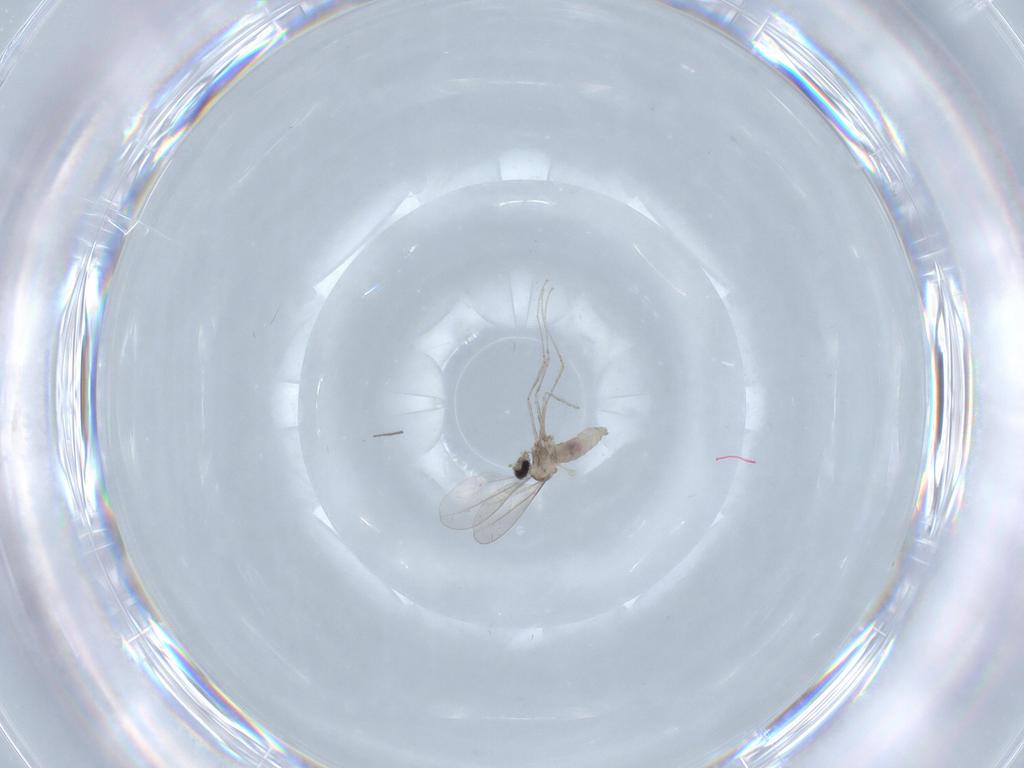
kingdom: Animalia
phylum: Arthropoda
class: Insecta
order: Diptera
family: Cecidomyiidae
